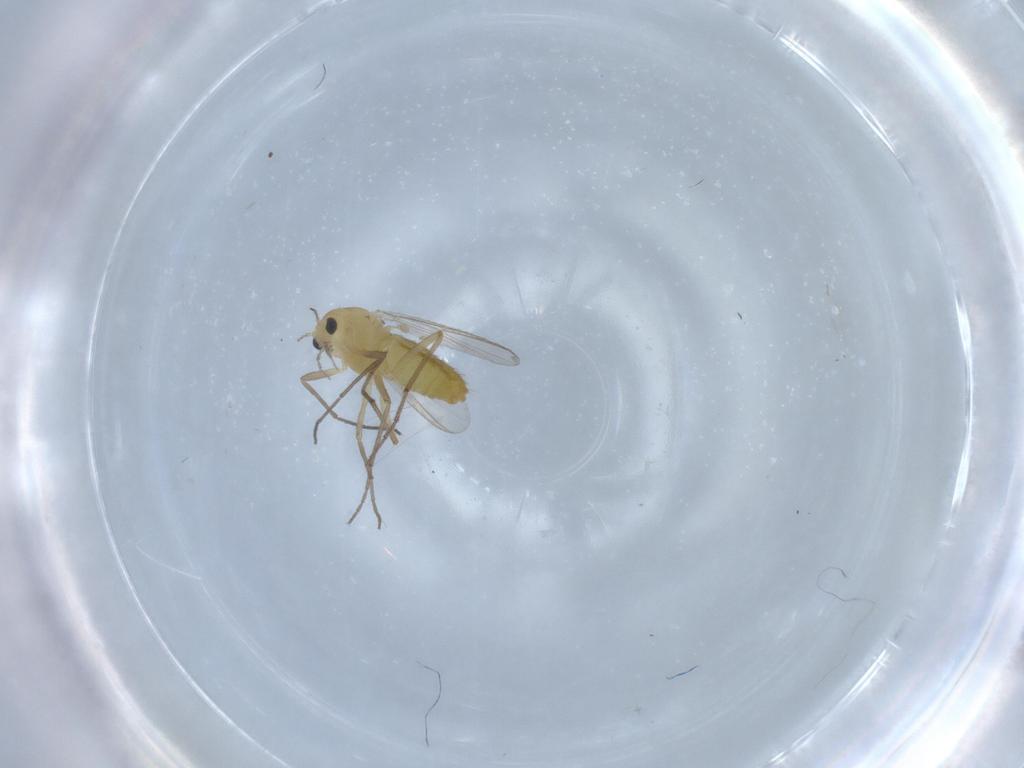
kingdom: Animalia
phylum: Arthropoda
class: Insecta
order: Diptera
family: Chironomidae
